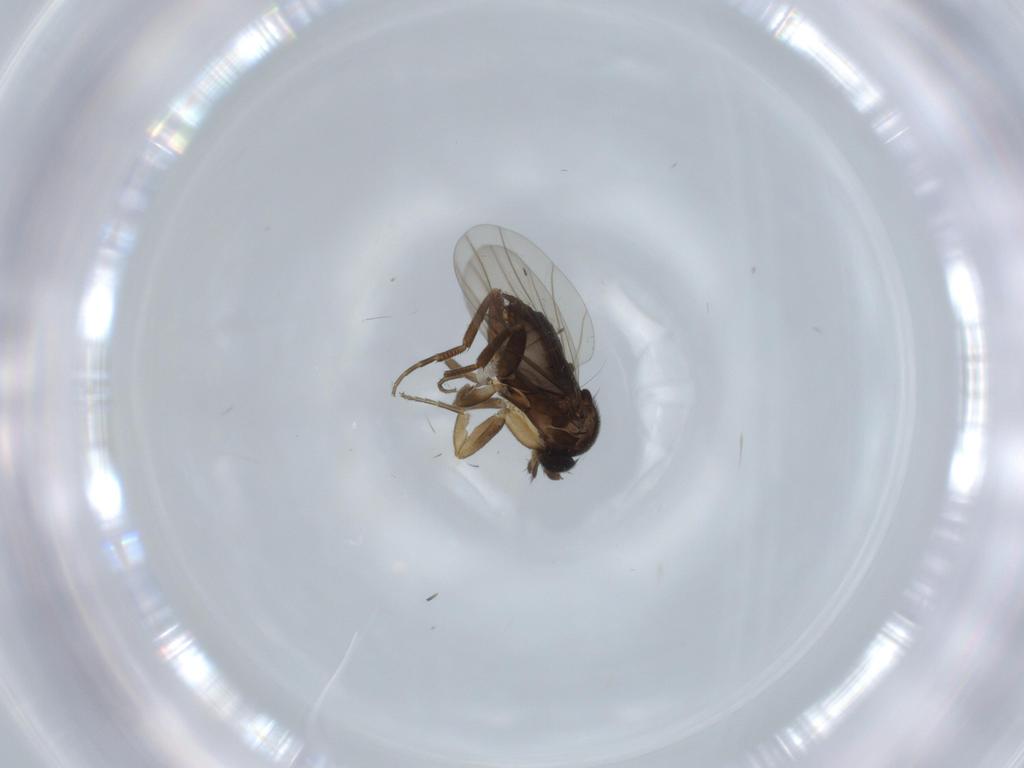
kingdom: Animalia
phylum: Arthropoda
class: Insecta
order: Diptera
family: Phoridae
